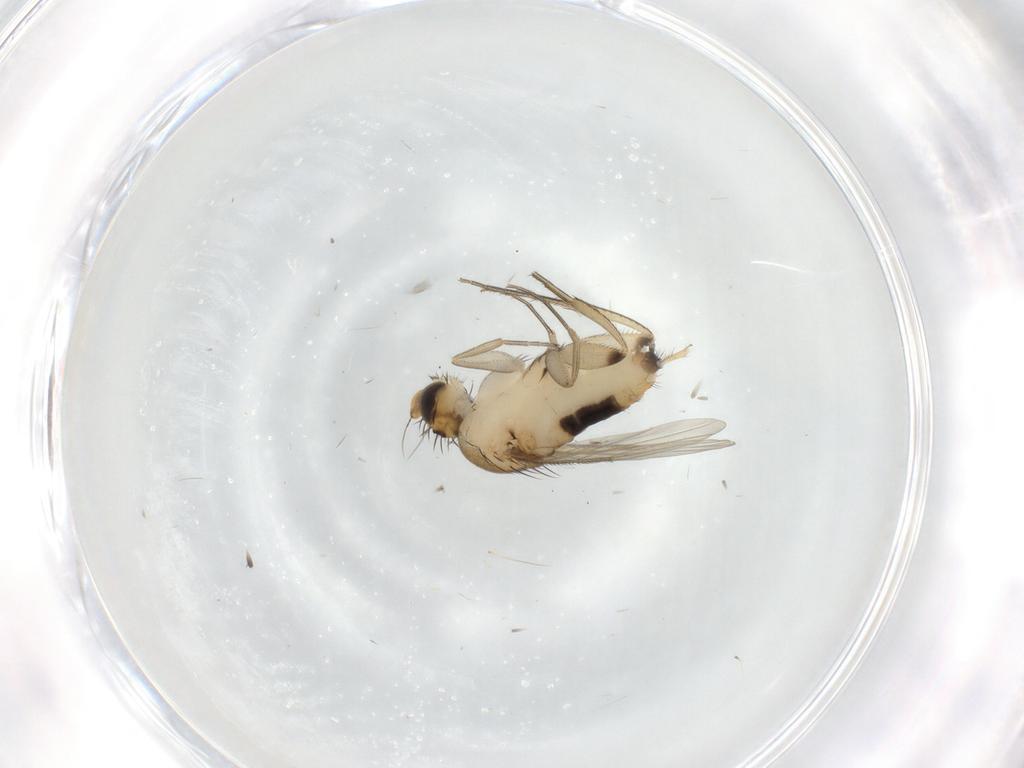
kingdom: Animalia
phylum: Arthropoda
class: Insecta
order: Diptera
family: Phoridae
